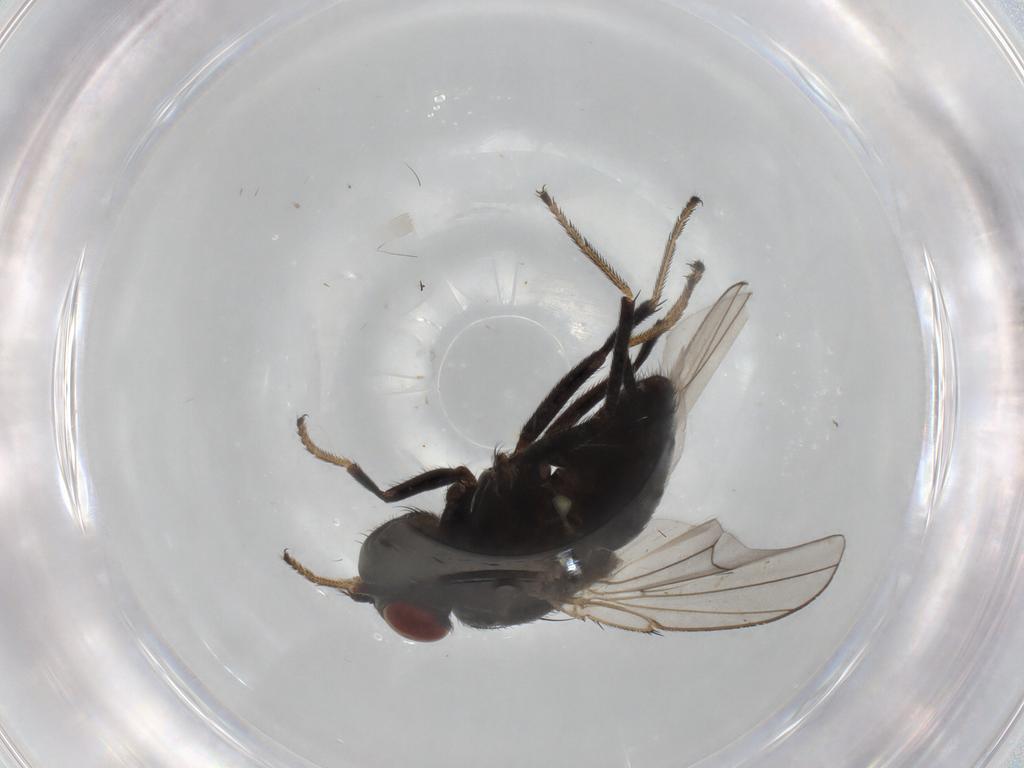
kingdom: Animalia
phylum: Arthropoda
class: Insecta
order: Diptera
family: Ephydridae
